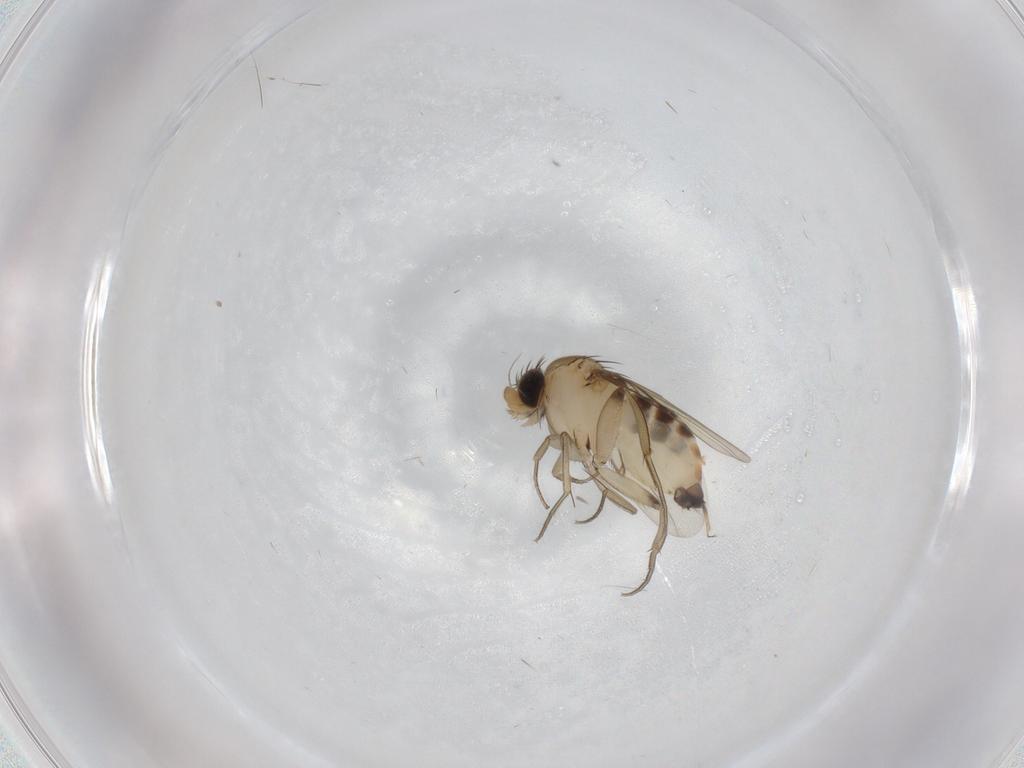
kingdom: Animalia
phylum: Arthropoda
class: Insecta
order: Diptera
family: Phoridae
